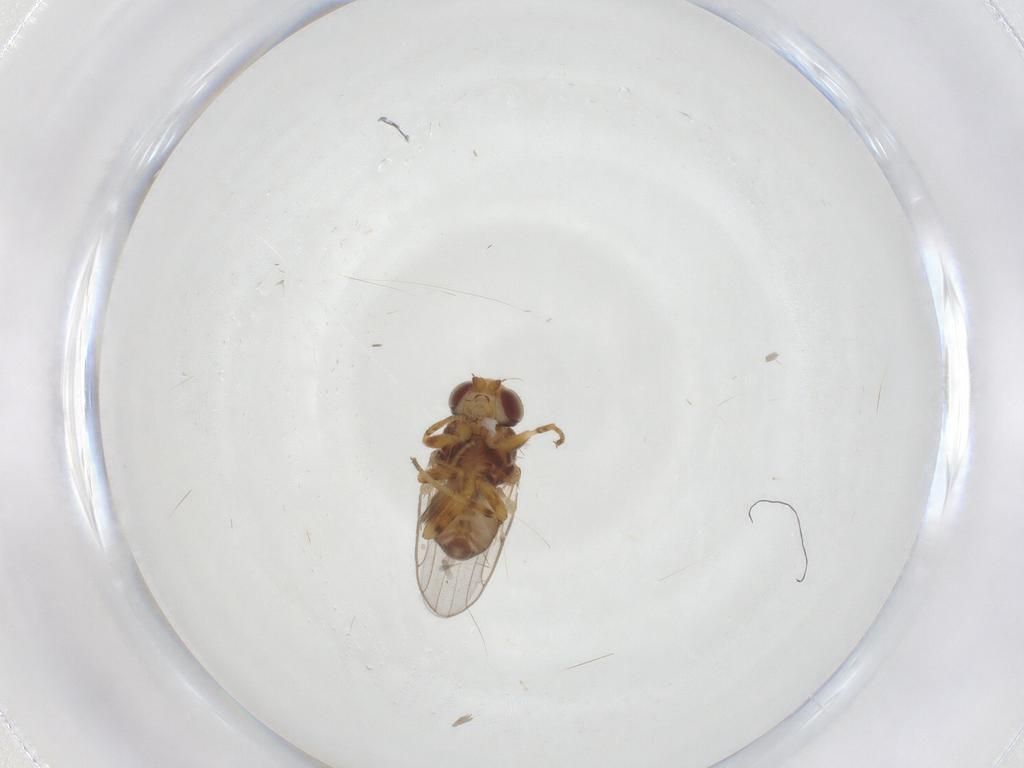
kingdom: Animalia
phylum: Arthropoda
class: Insecta
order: Diptera
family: Chloropidae
